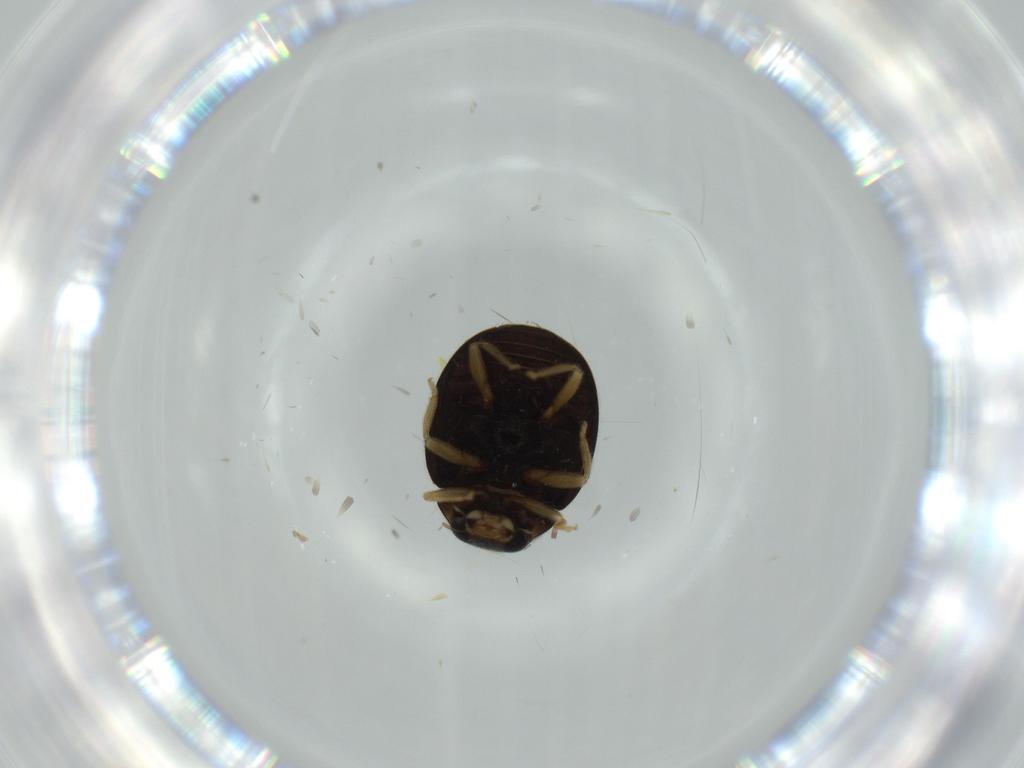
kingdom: Animalia
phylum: Arthropoda
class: Insecta
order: Coleoptera
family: Coccinellidae
